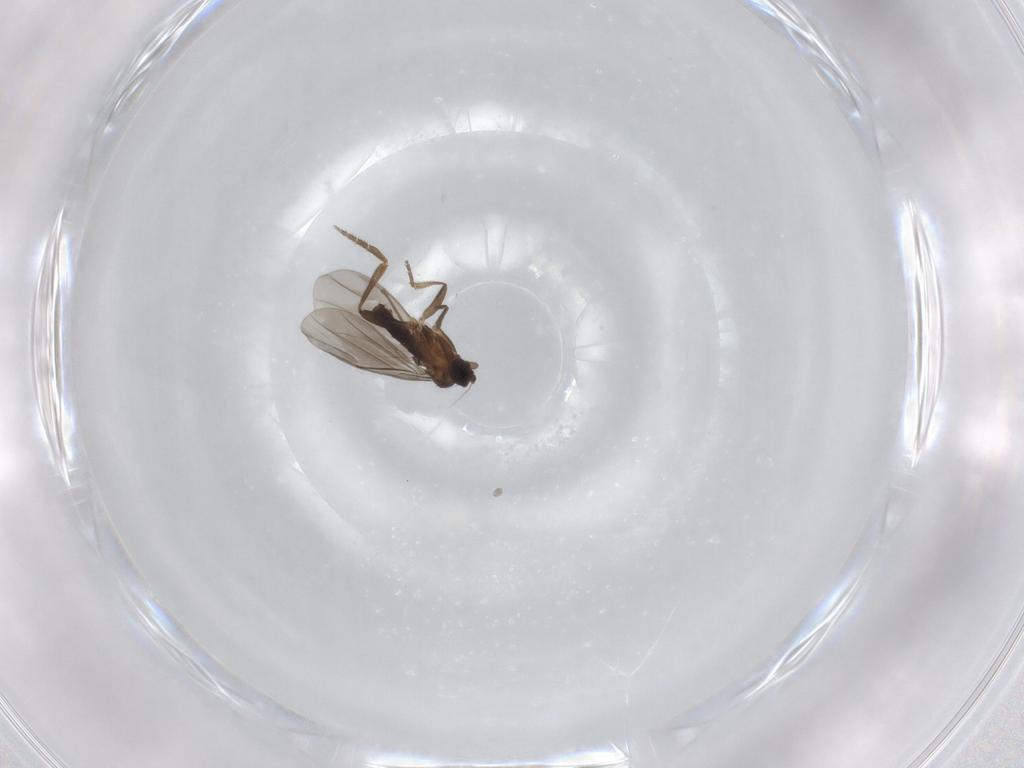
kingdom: Animalia
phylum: Arthropoda
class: Insecta
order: Diptera
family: Phoridae
